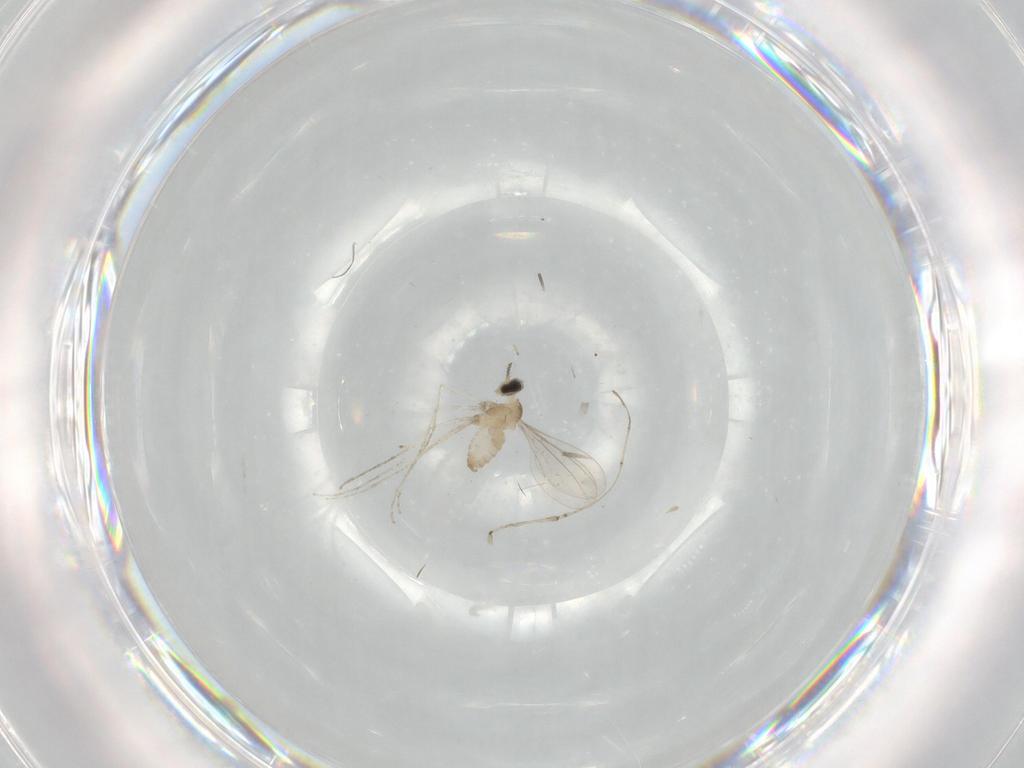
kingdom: Animalia
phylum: Arthropoda
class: Insecta
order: Diptera
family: Cecidomyiidae
